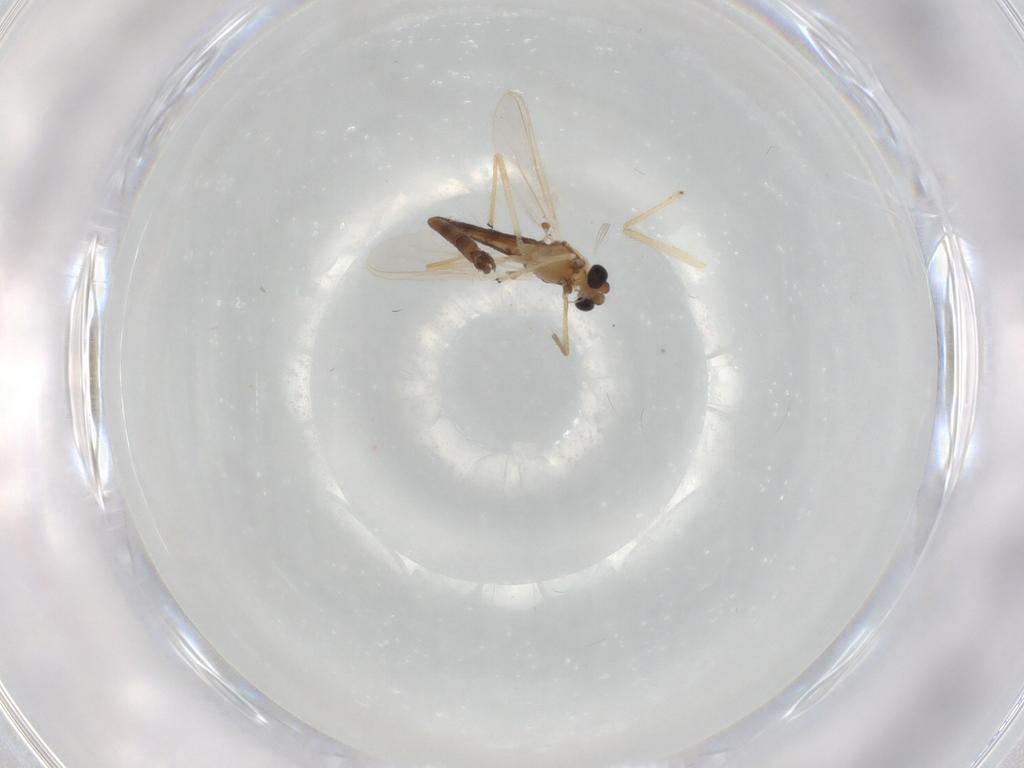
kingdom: Animalia
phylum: Arthropoda
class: Insecta
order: Diptera
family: Chironomidae
